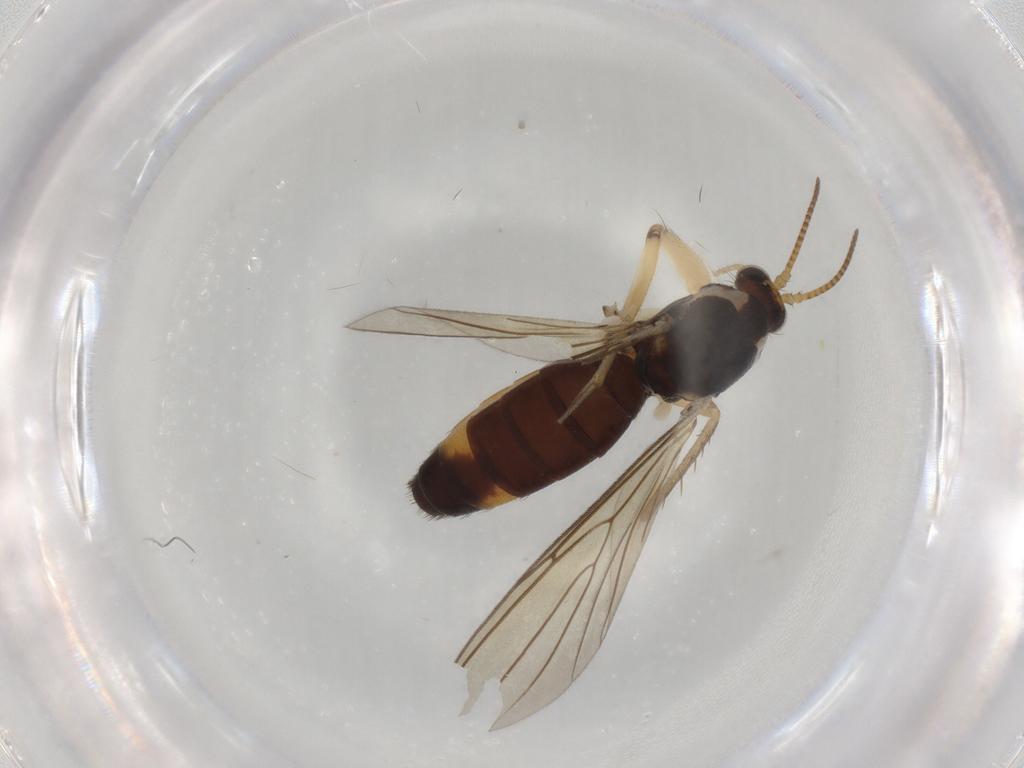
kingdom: Animalia
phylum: Arthropoda
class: Insecta
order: Diptera
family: Mycetophilidae
